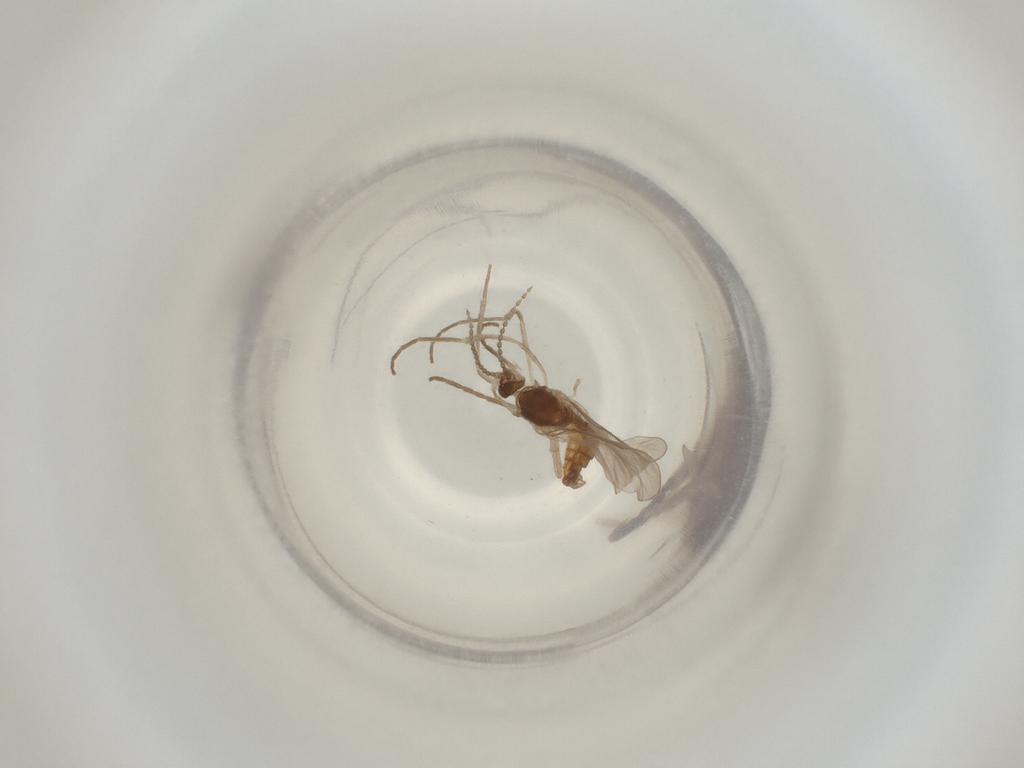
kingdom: Animalia
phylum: Arthropoda
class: Insecta
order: Diptera
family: Cecidomyiidae
